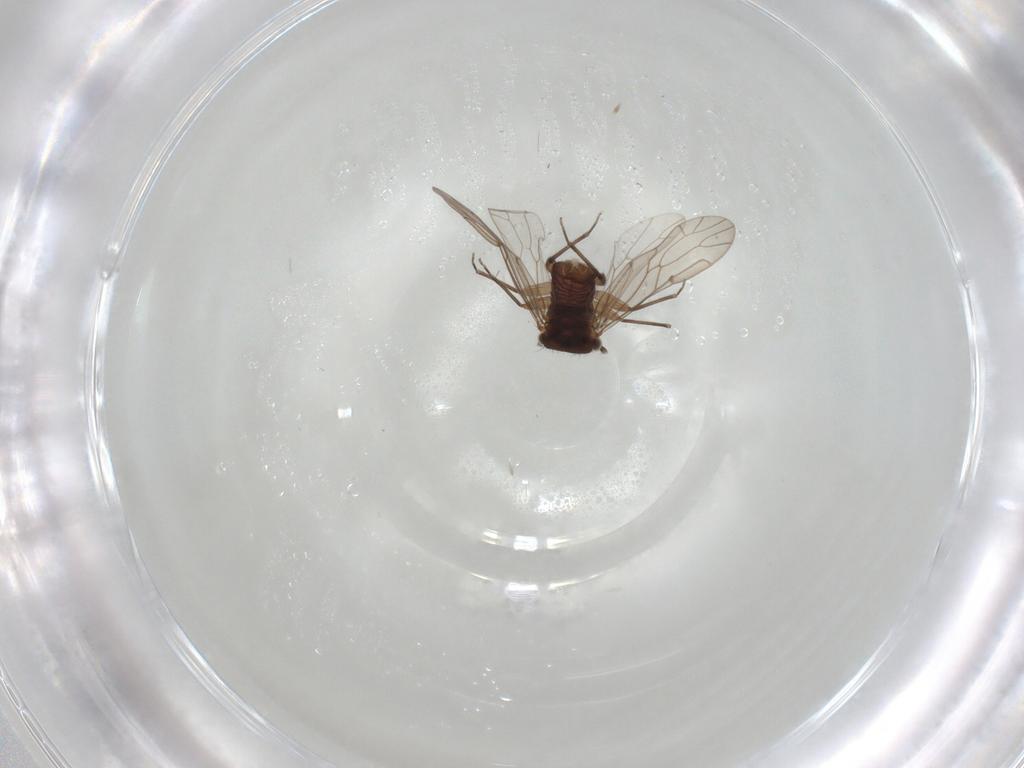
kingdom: Animalia
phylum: Arthropoda
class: Insecta
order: Psocodea
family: Ectopsocidae
